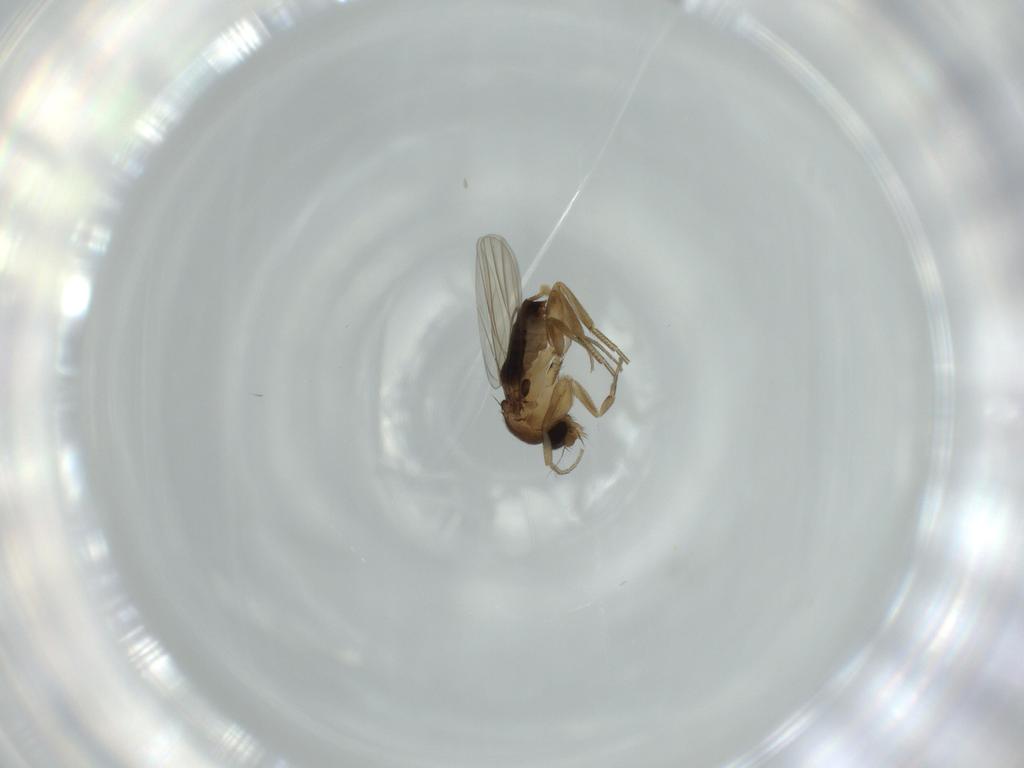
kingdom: Animalia
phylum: Arthropoda
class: Insecta
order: Diptera
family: Phoridae
